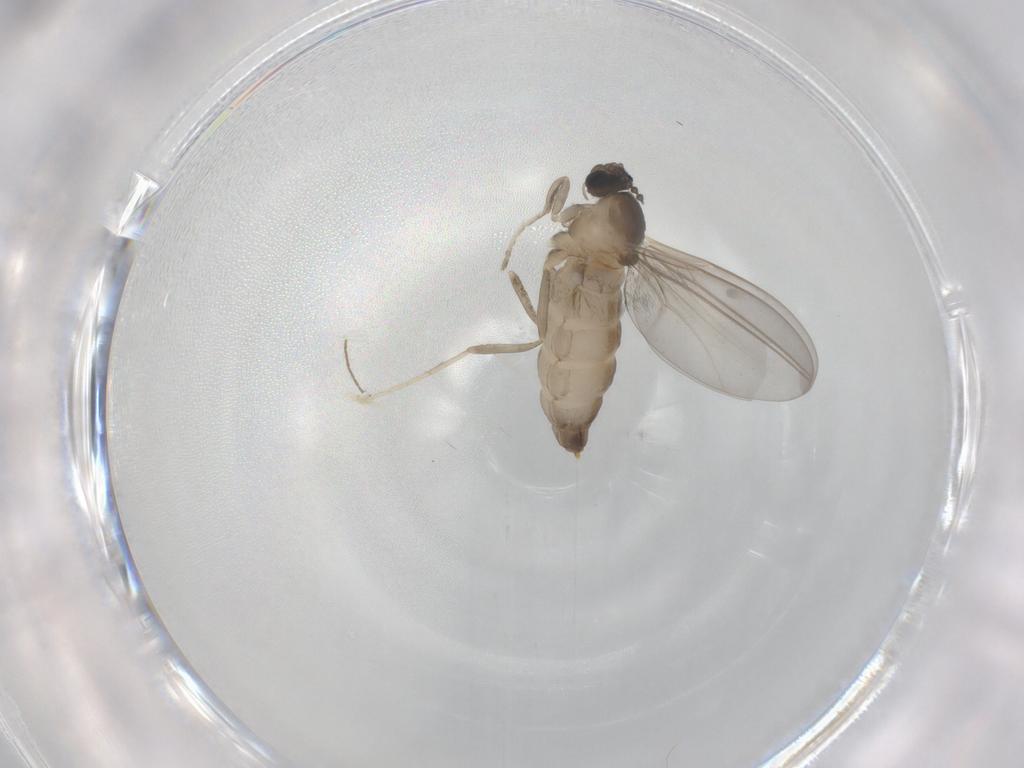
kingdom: Animalia
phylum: Arthropoda
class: Insecta
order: Diptera
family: Cecidomyiidae
